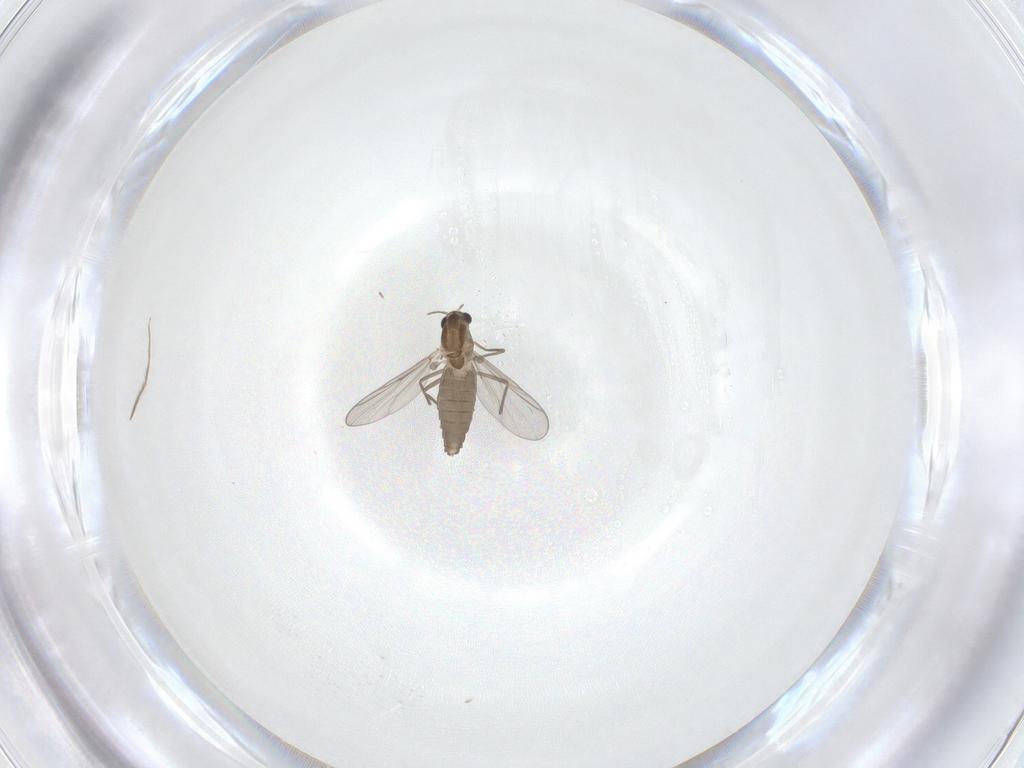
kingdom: Animalia
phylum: Arthropoda
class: Insecta
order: Diptera
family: Chironomidae
